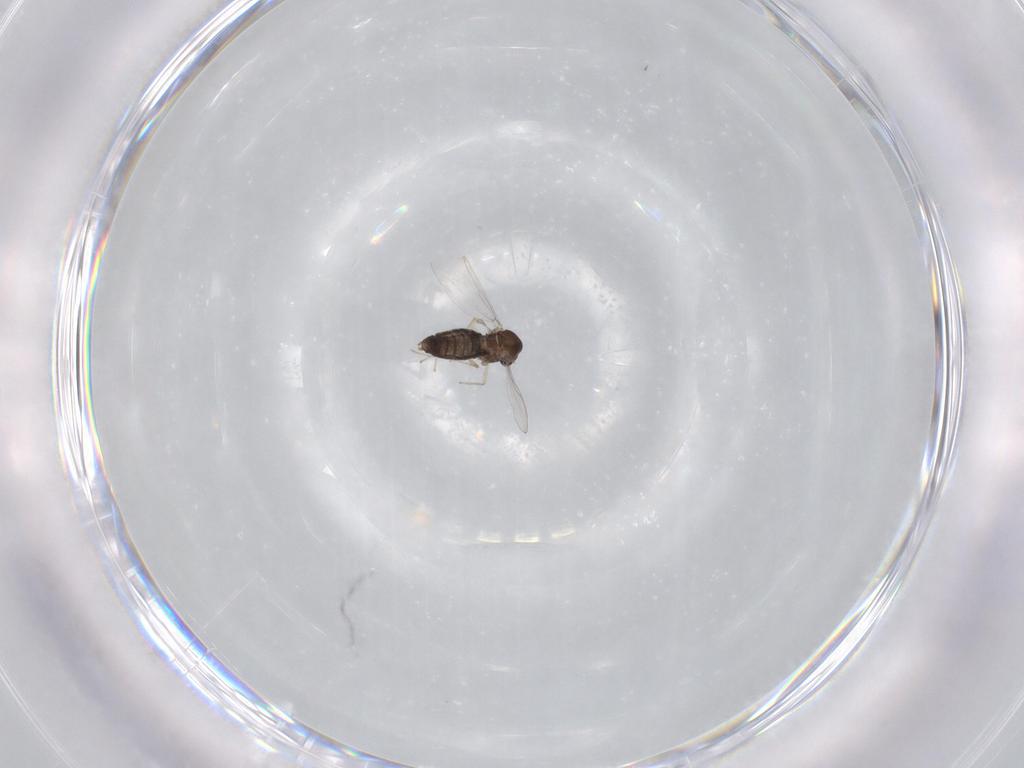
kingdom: Animalia
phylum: Arthropoda
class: Insecta
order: Diptera
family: Chironomidae
